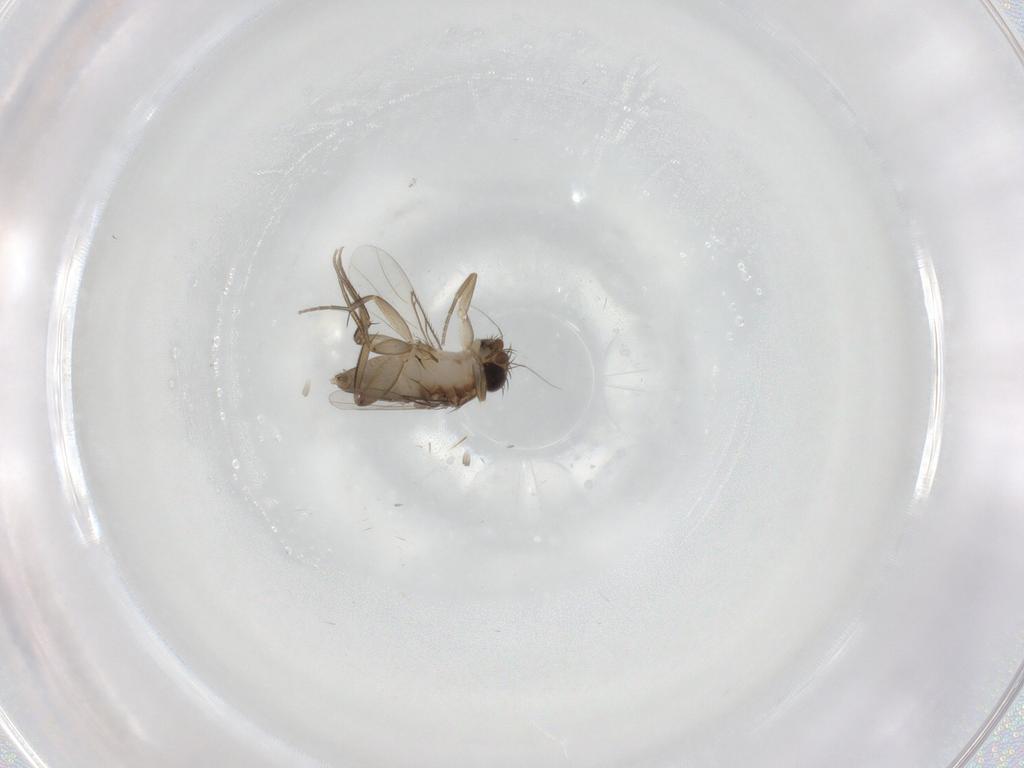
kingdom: Animalia
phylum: Arthropoda
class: Insecta
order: Diptera
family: Phoridae
